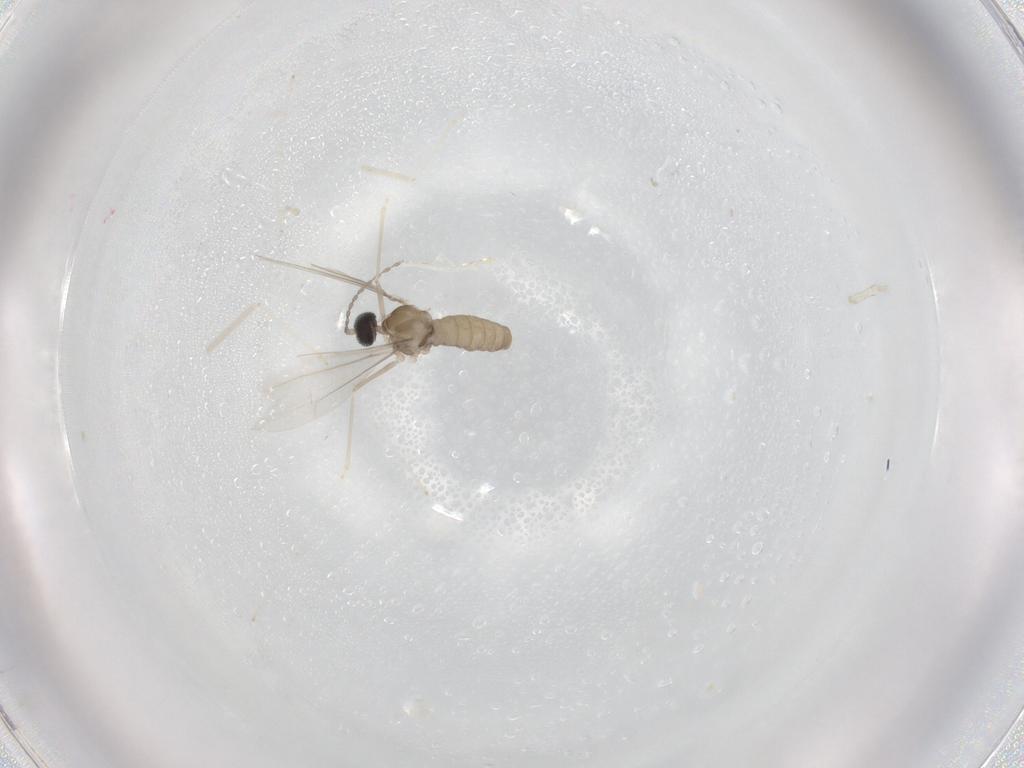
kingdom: Animalia
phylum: Arthropoda
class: Insecta
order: Diptera
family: Cecidomyiidae
